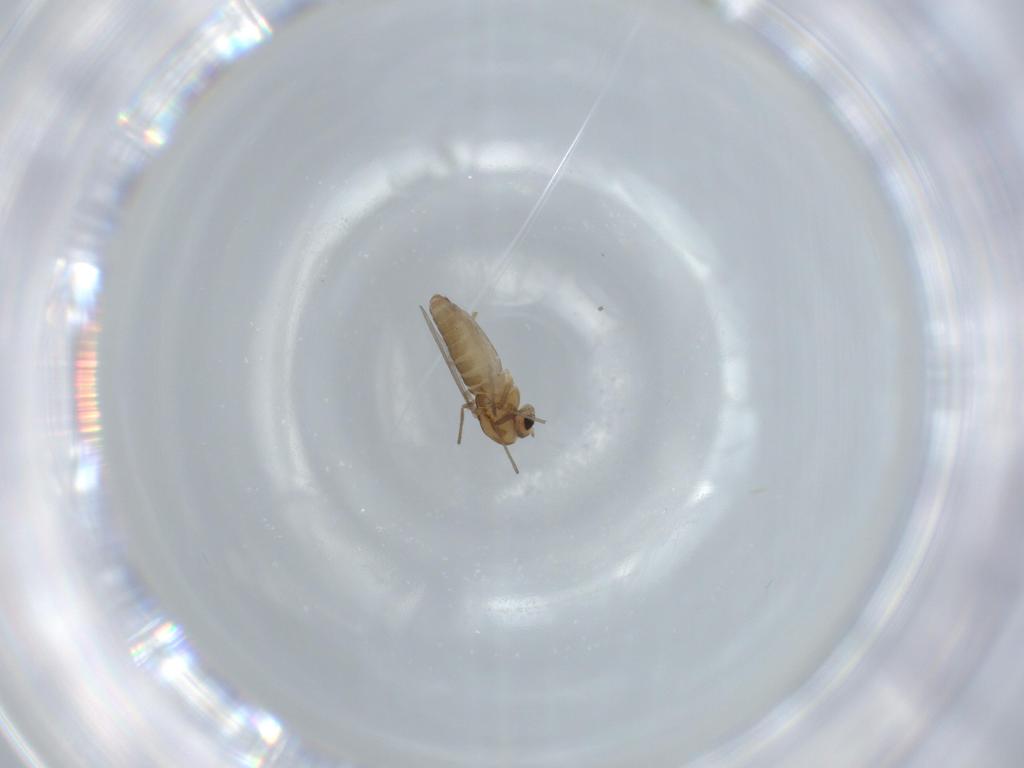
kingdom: Animalia
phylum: Arthropoda
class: Insecta
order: Diptera
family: Chironomidae
